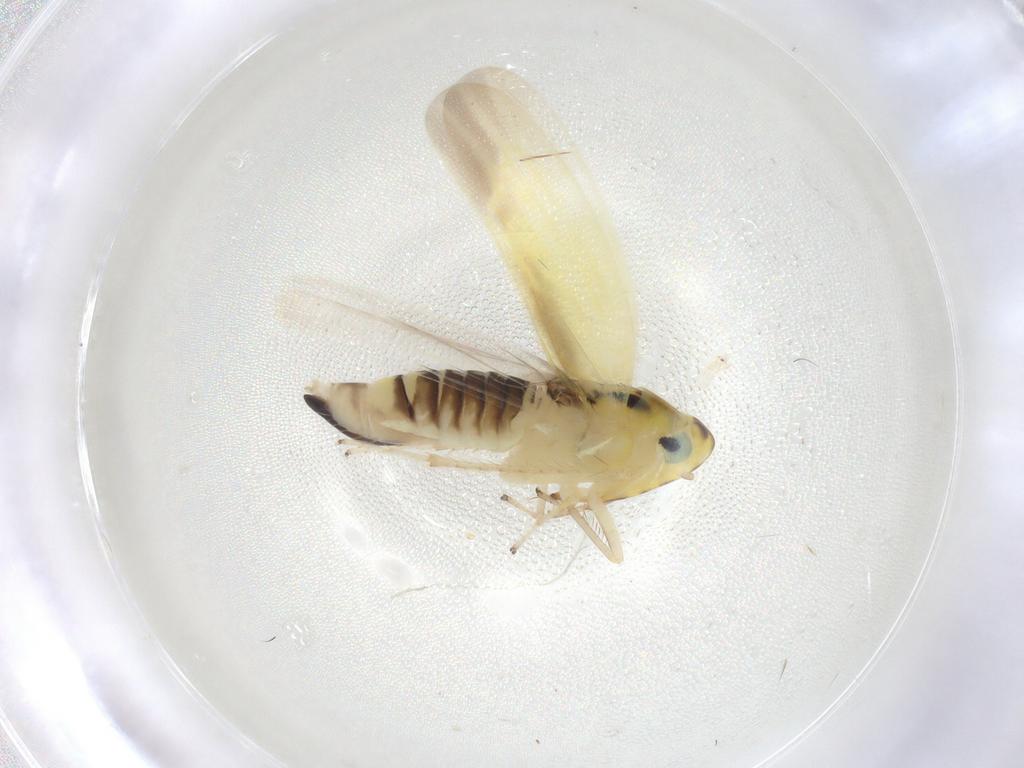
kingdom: Animalia
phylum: Arthropoda
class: Insecta
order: Hemiptera
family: Cicadellidae
